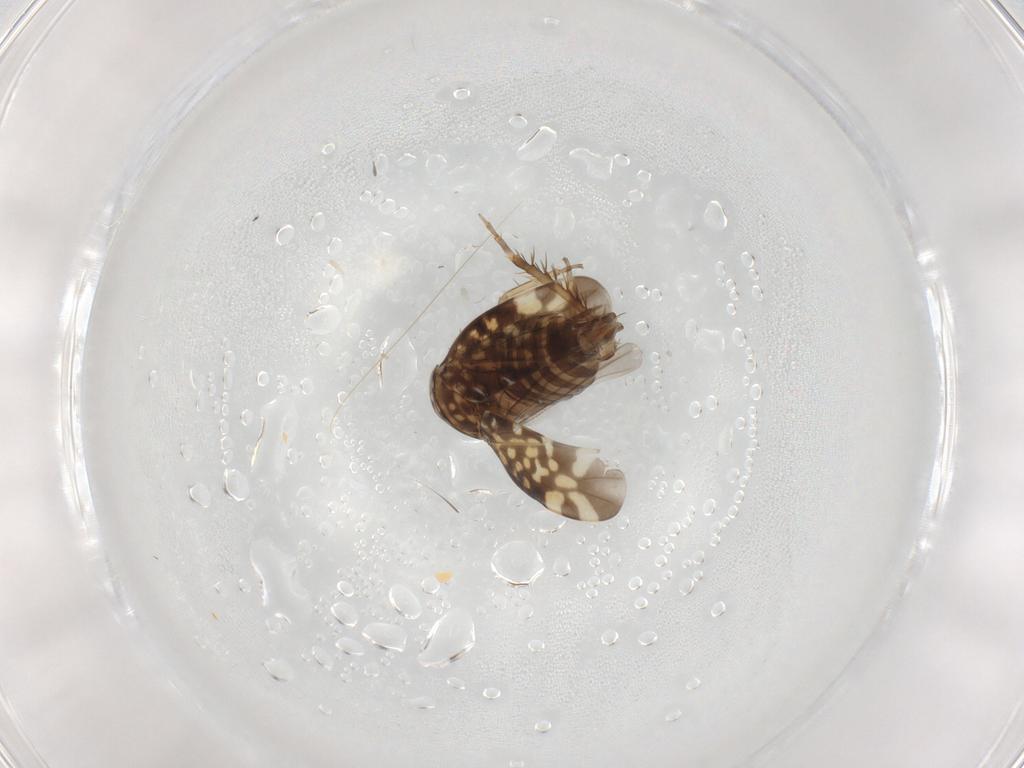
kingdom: Animalia
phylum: Arthropoda
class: Insecta
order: Hemiptera
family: Cicadellidae
